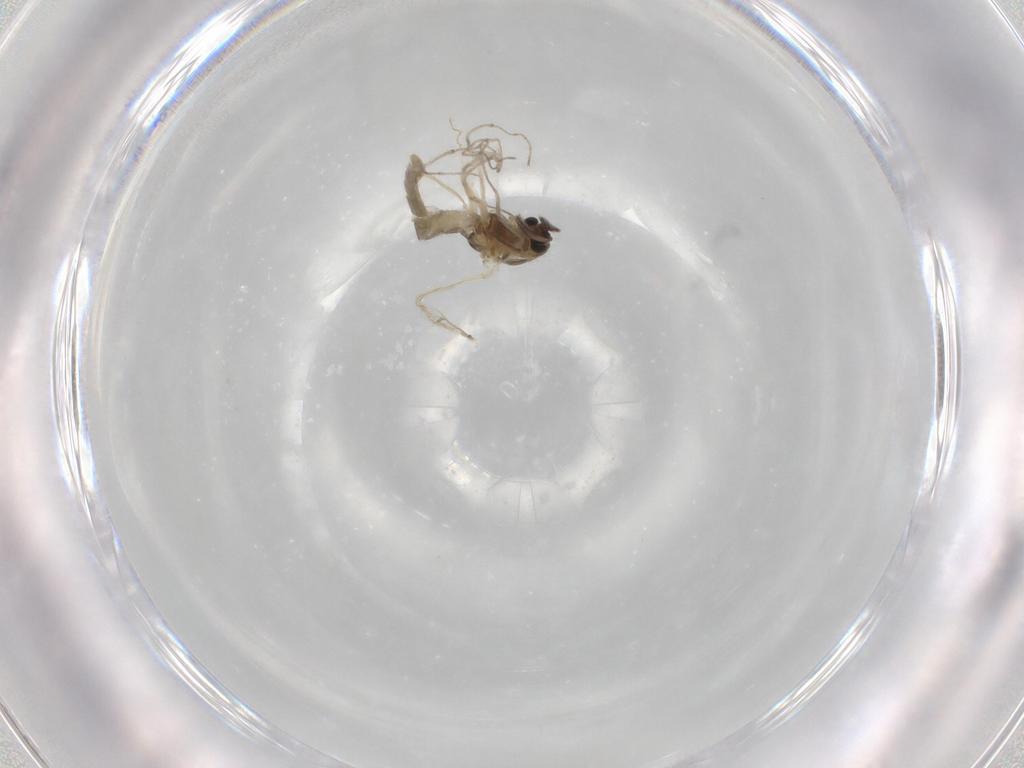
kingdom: Animalia
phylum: Arthropoda
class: Insecta
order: Diptera
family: Chironomidae
